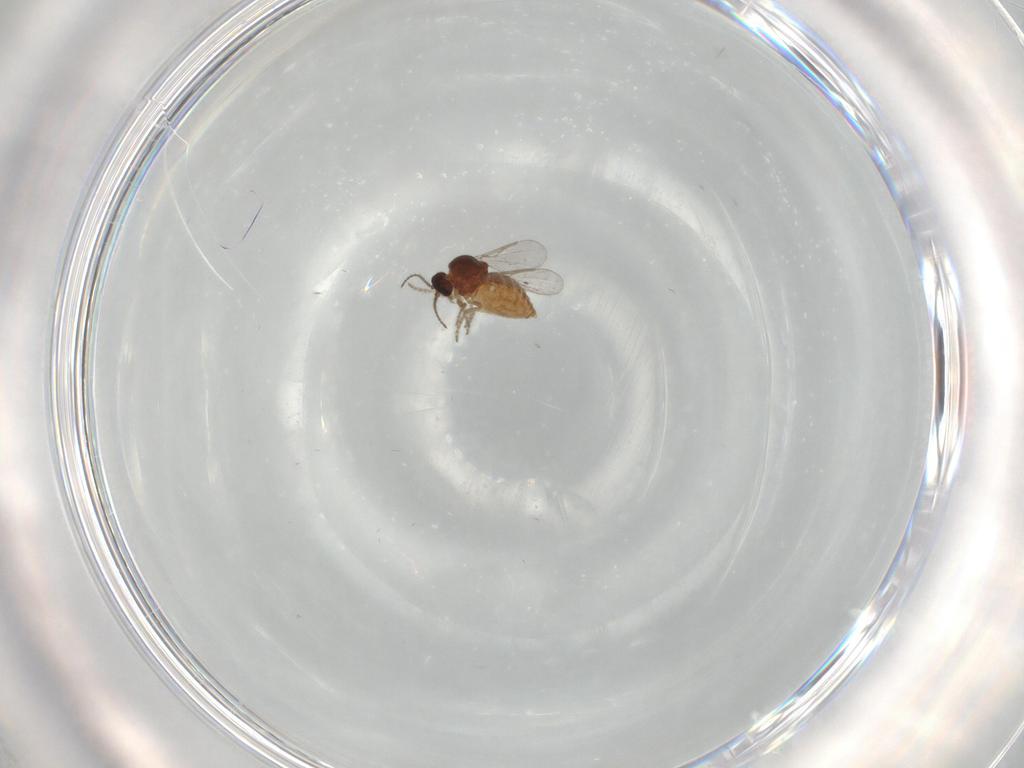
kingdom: Animalia
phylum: Arthropoda
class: Insecta
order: Diptera
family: Ceratopogonidae
